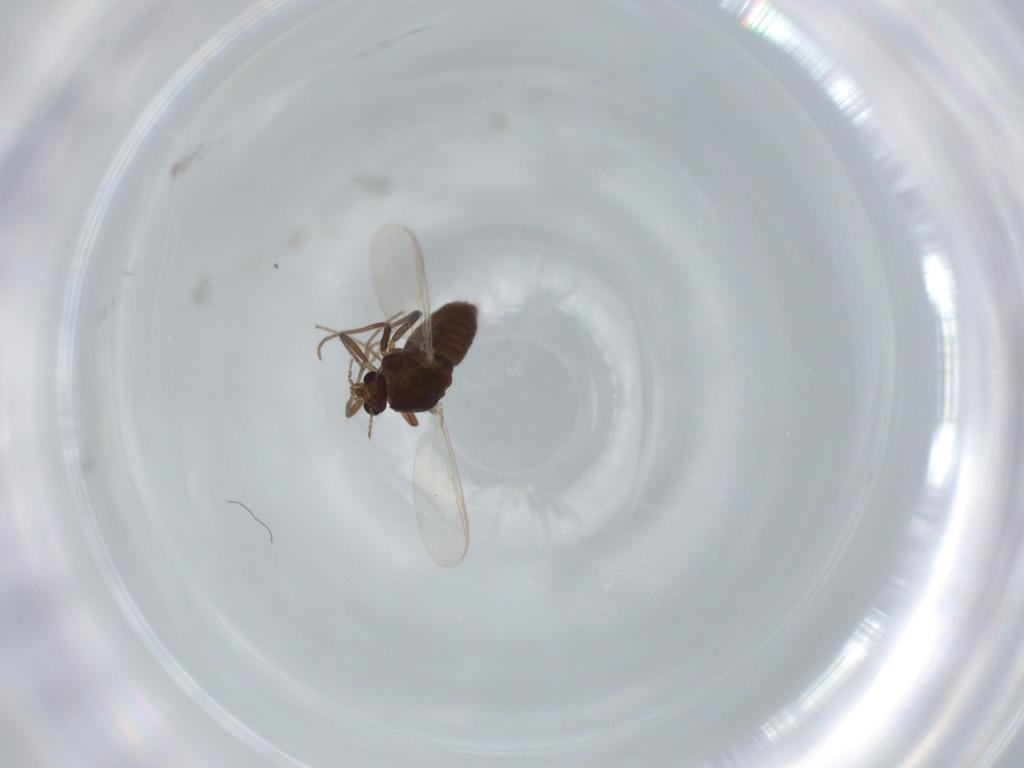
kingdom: Animalia
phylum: Arthropoda
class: Insecta
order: Diptera
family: Chironomidae
